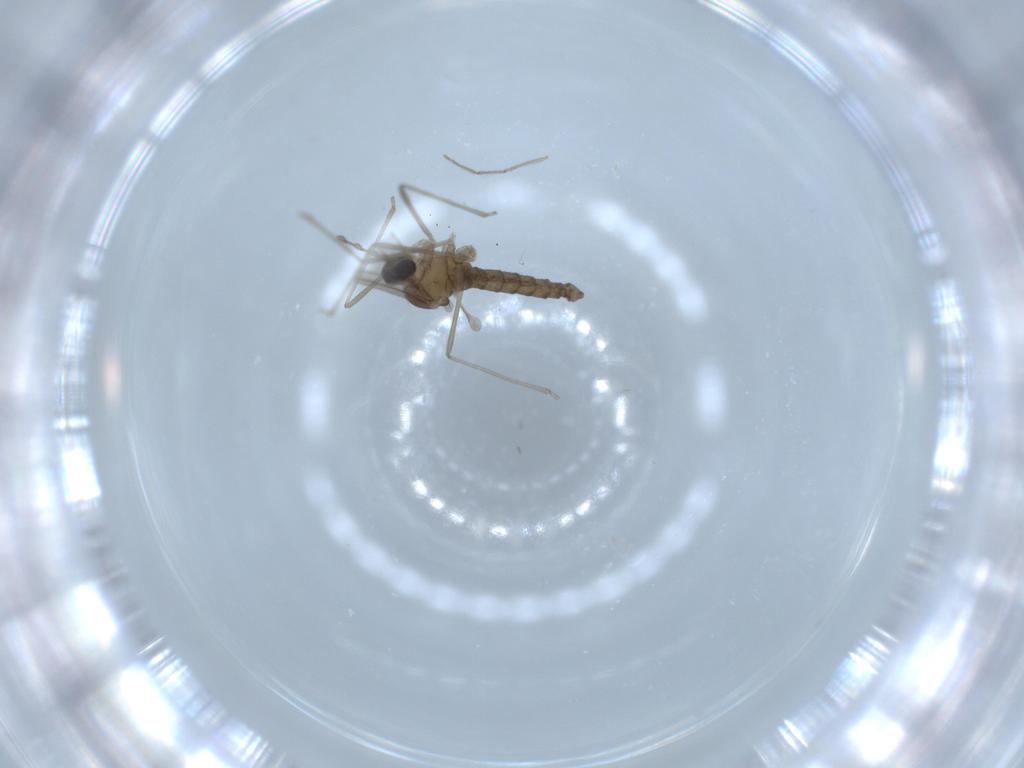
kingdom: Animalia
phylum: Arthropoda
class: Insecta
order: Diptera
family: Cecidomyiidae
